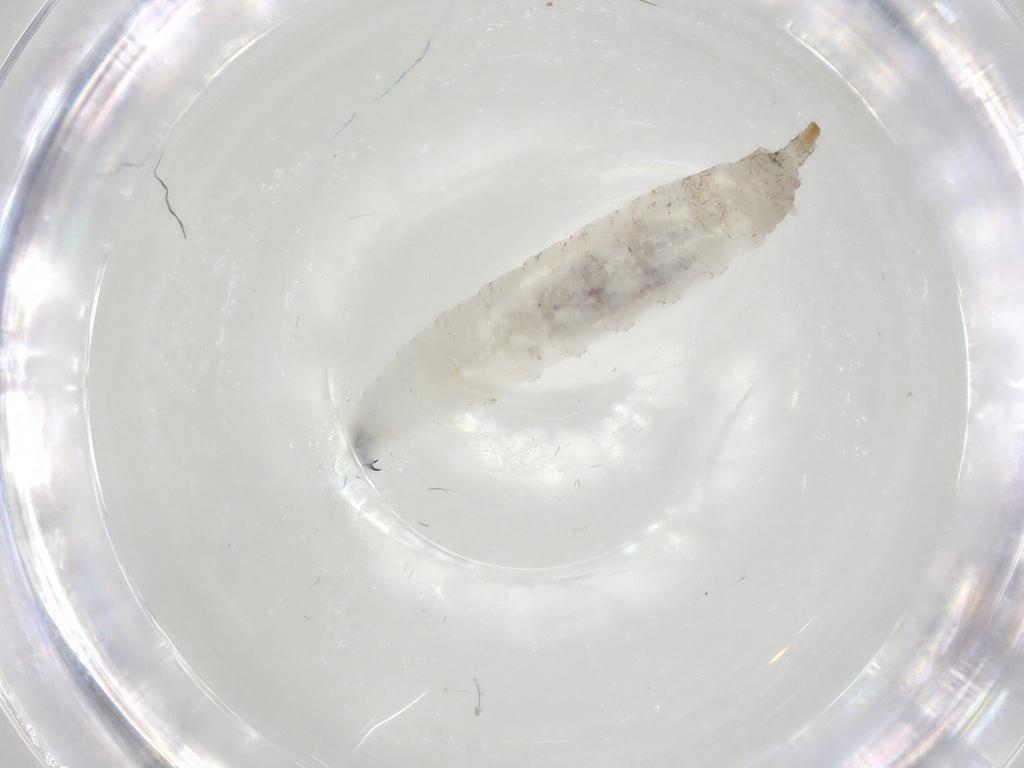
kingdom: Animalia
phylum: Arthropoda
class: Insecta
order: Diptera
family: Drosophilidae
